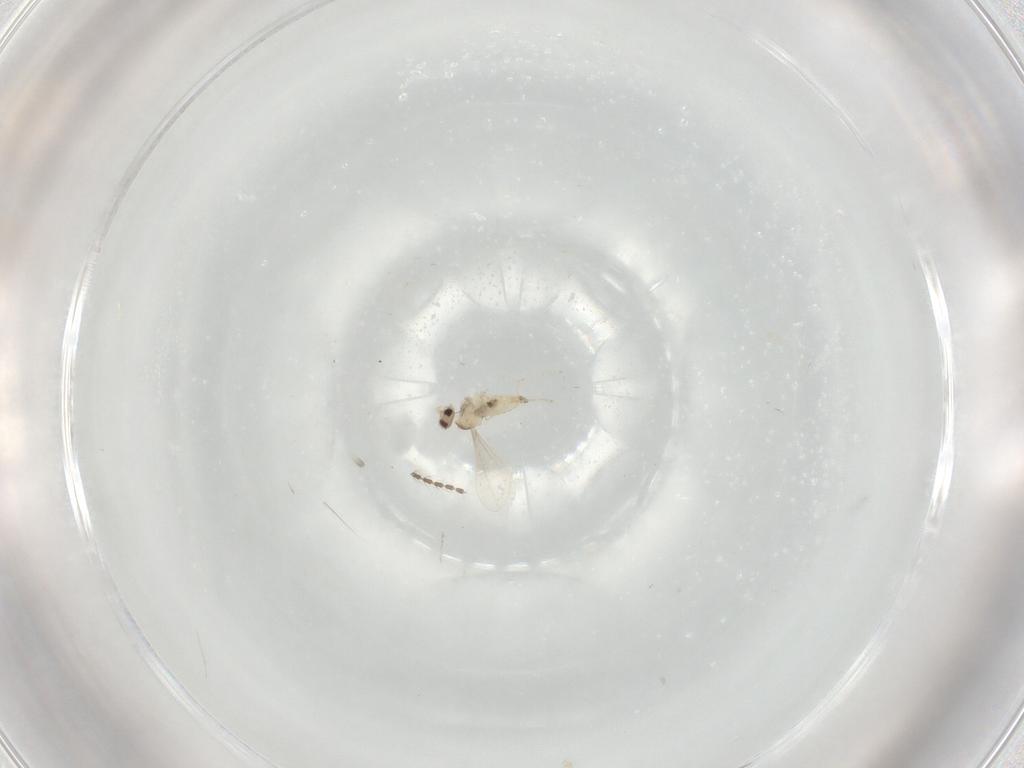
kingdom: Animalia
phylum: Arthropoda
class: Insecta
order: Diptera
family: Cecidomyiidae
